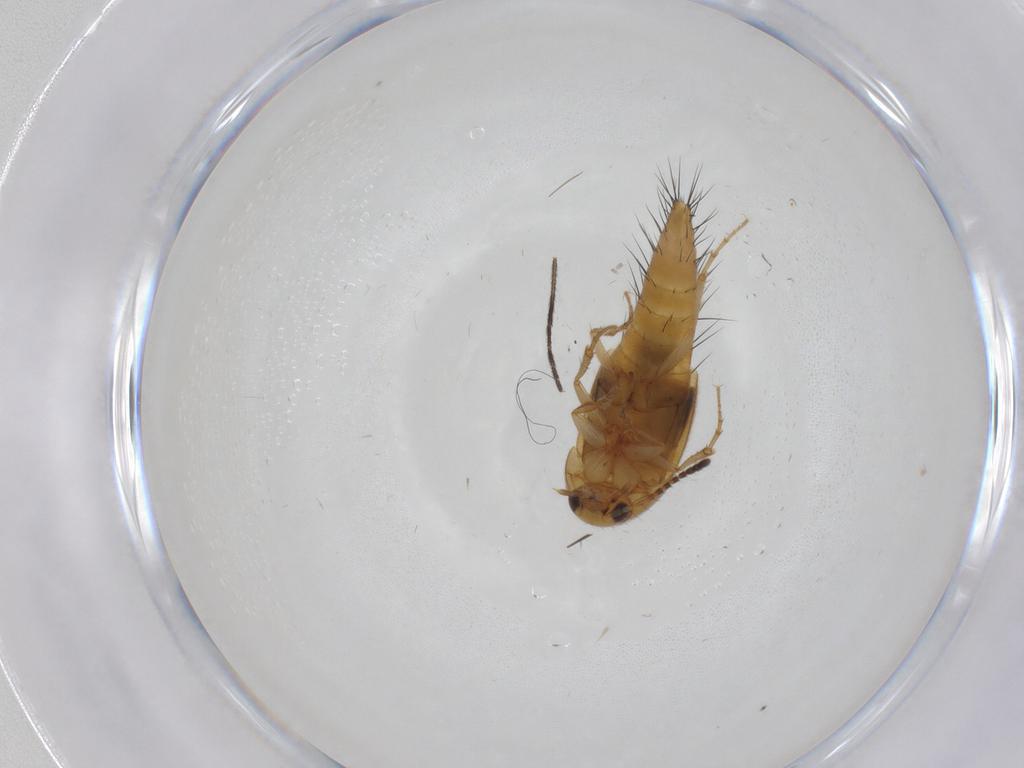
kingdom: Animalia
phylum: Arthropoda
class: Insecta
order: Coleoptera
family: Staphylinidae
